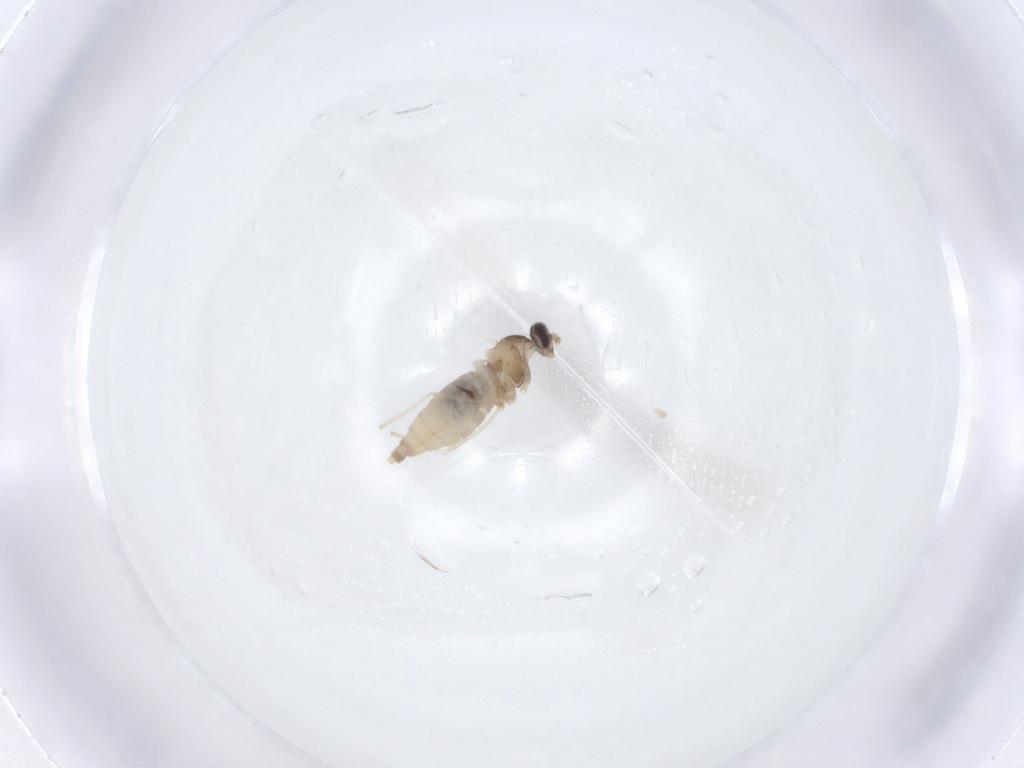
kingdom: Animalia
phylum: Arthropoda
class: Insecta
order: Diptera
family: Cecidomyiidae
